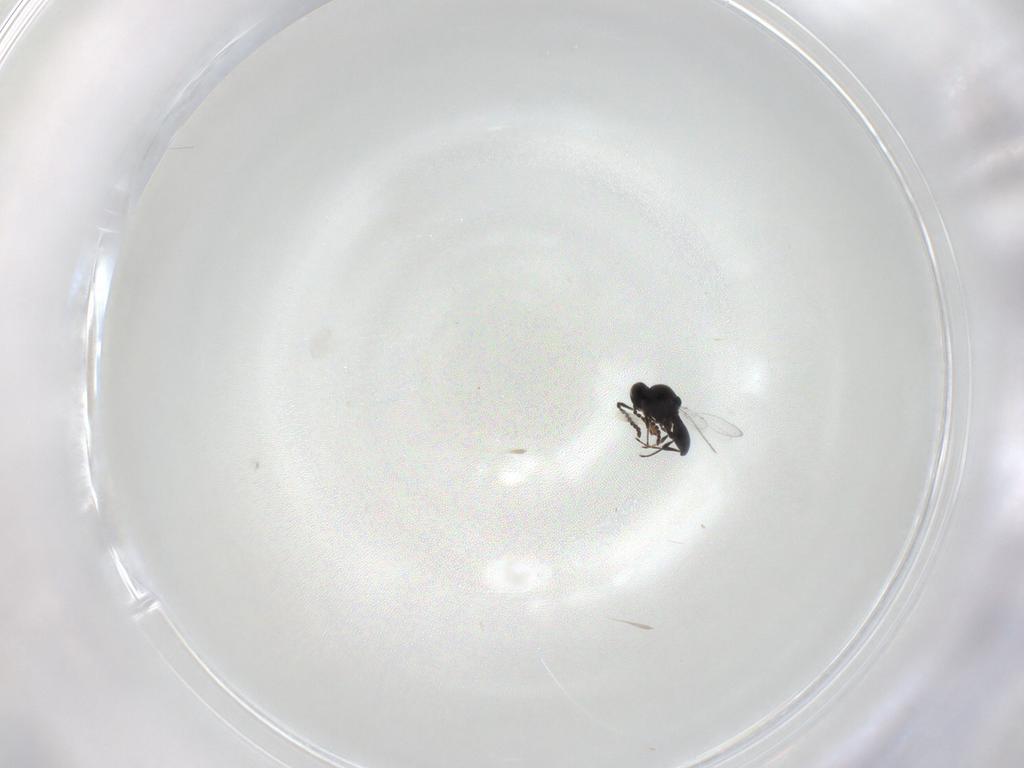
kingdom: Animalia
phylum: Arthropoda
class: Insecta
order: Hymenoptera
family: Platygastridae
